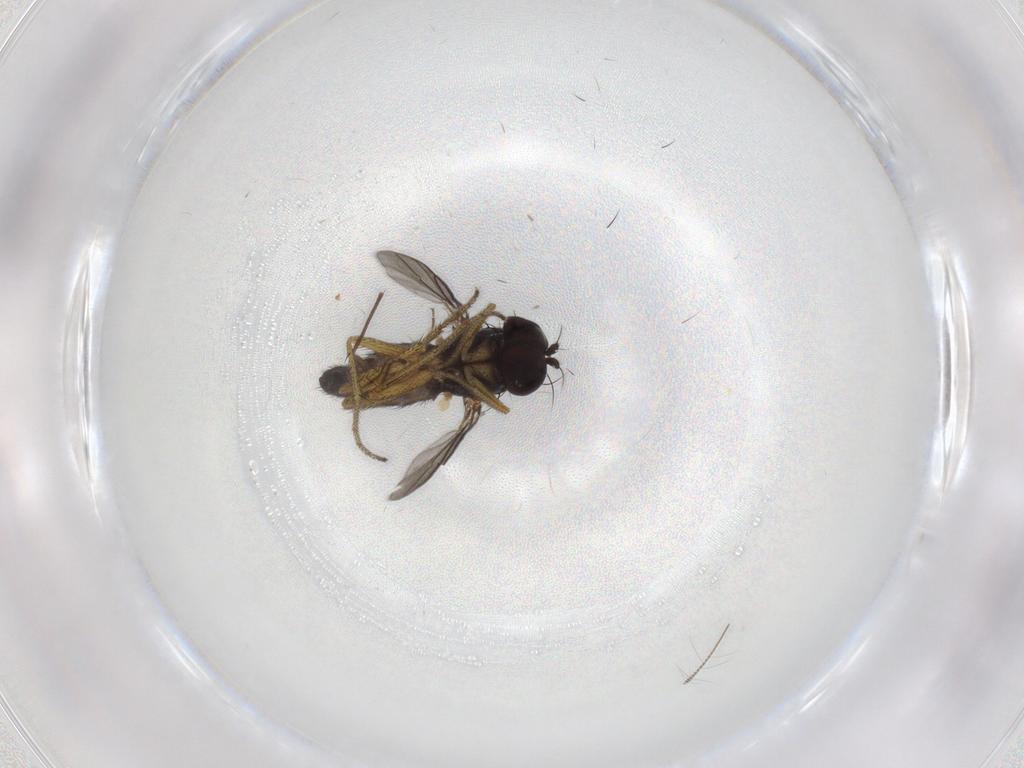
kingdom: Animalia
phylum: Arthropoda
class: Insecta
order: Diptera
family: Chironomidae
